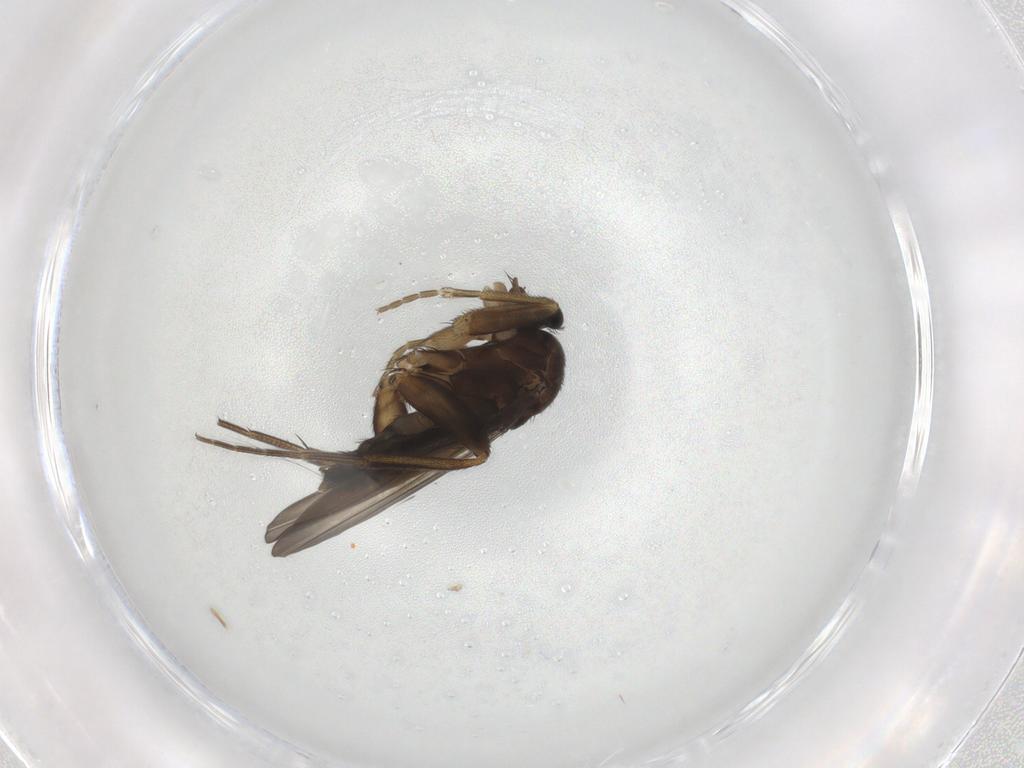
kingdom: Animalia
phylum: Arthropoda
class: Insecta
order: Diptera
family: Phoridae
